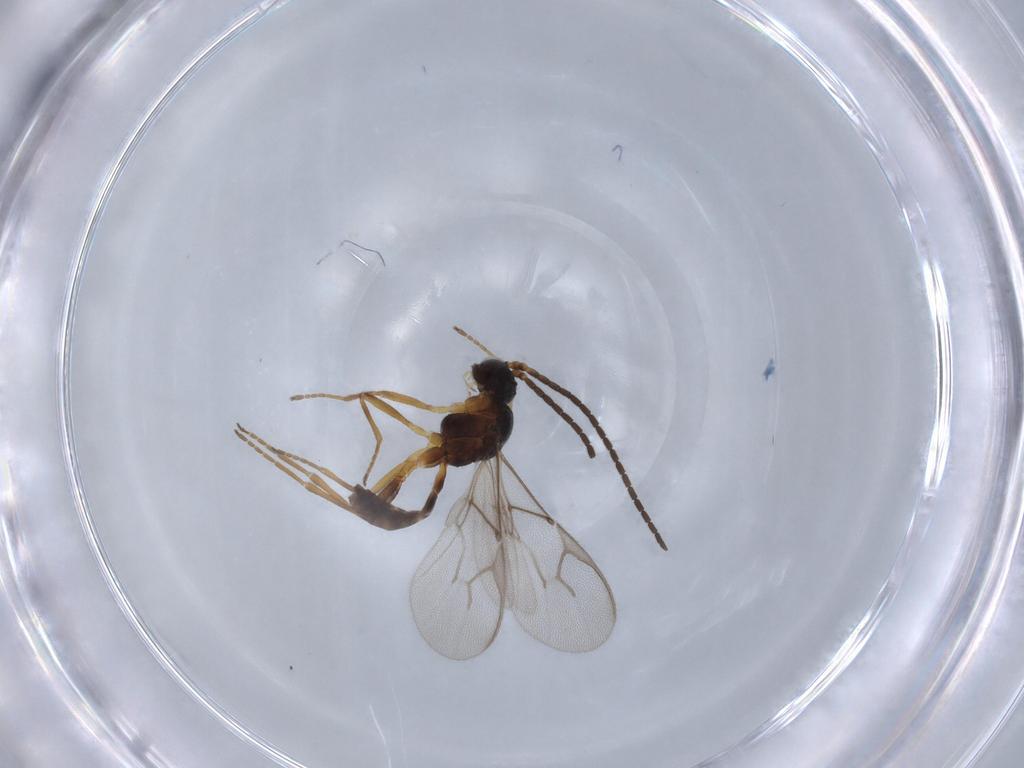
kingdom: Animalia
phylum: Arthropoda
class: Insecta
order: Hymenoptera
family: Braconidae
